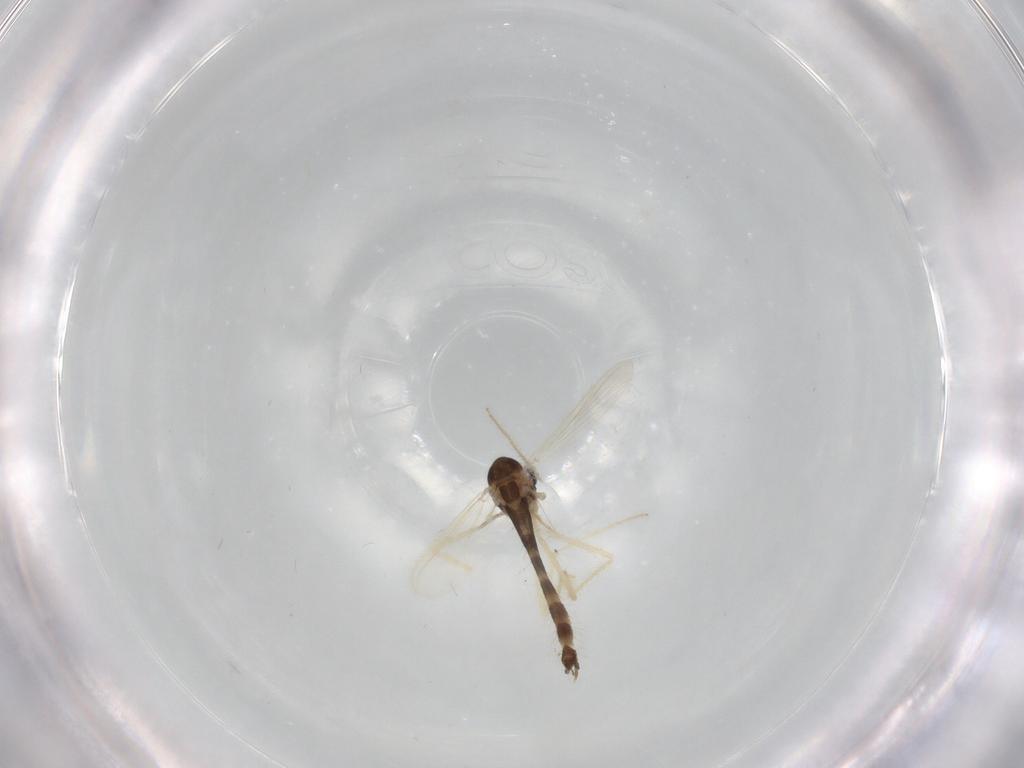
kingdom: Animalia
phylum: Arthropoda
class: Insecta
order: Diptera
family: Chironomidae
